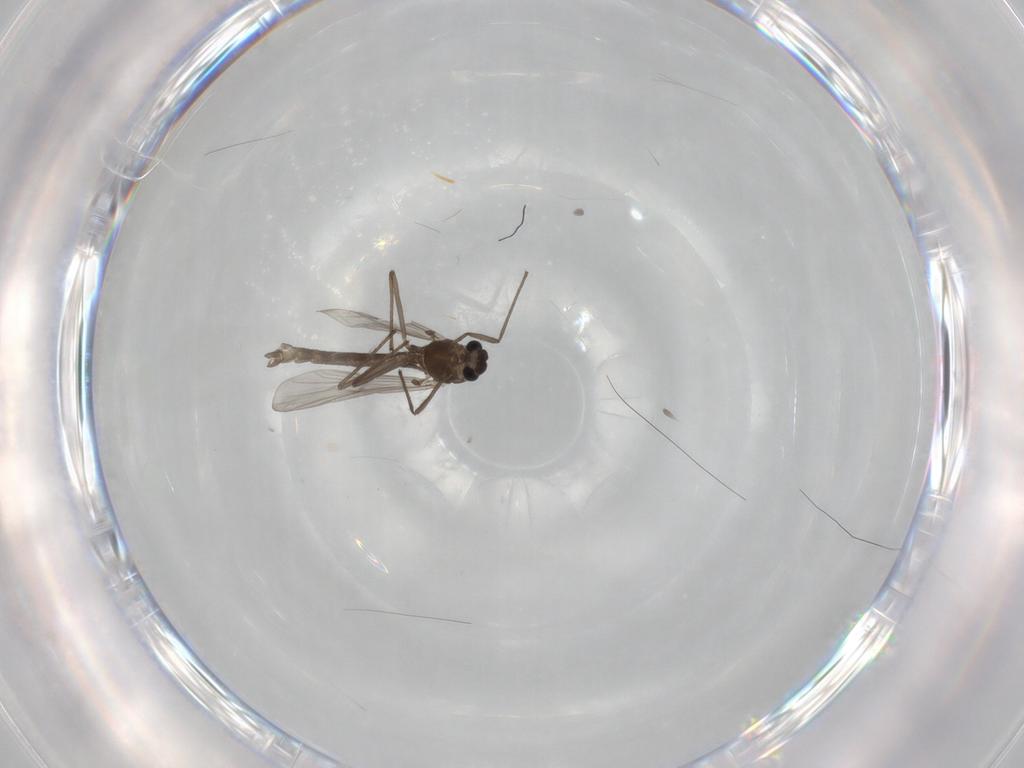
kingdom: Animalia
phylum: Arthropoda
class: Insecta
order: Diptera
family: Chironomidae
